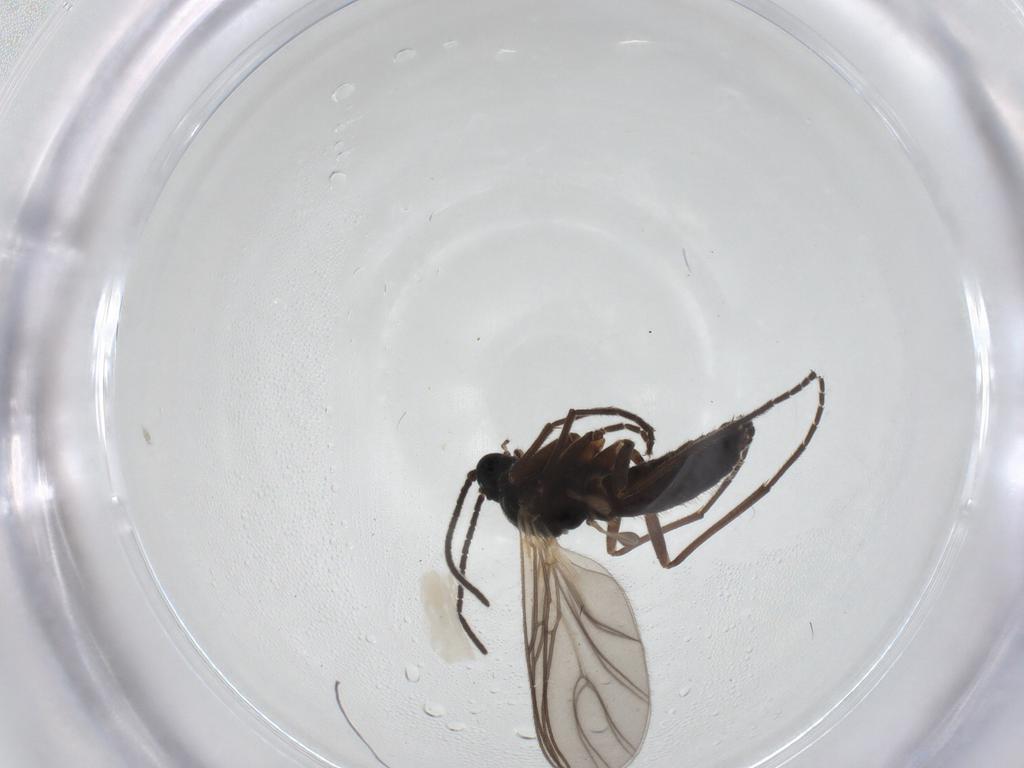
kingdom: Animalia
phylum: Arthropoda
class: Insecta
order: Diptera
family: Sciaridae
